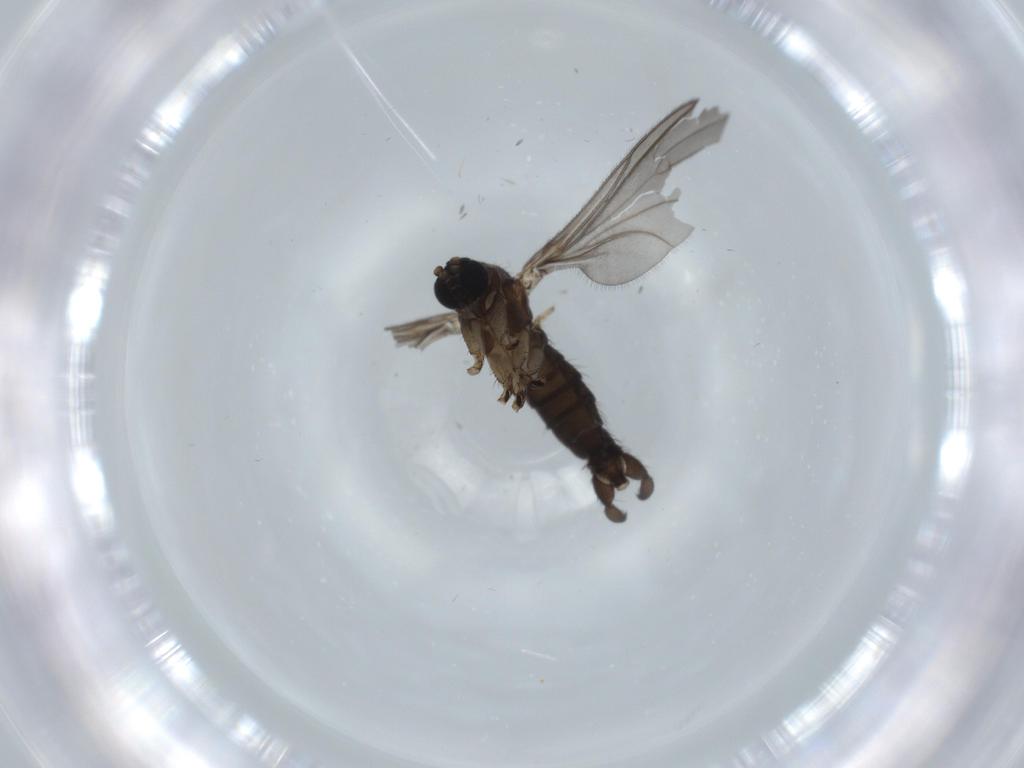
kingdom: Animalia
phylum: Arthropoda
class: Insecta
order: Diptera
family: Sciaridae
